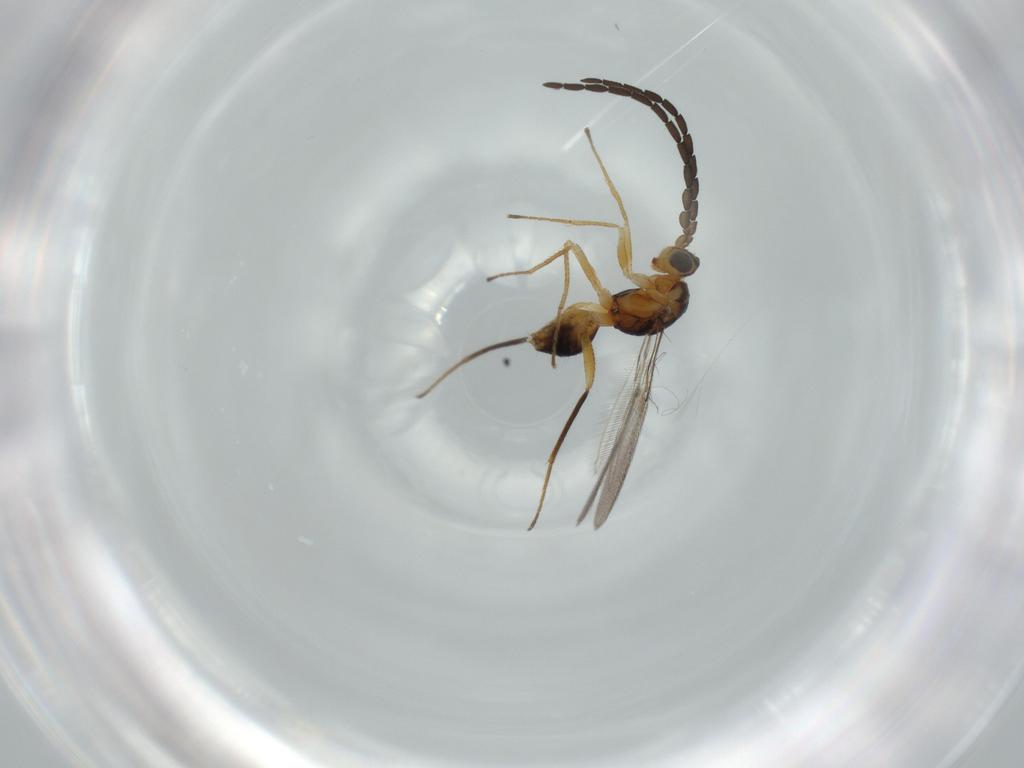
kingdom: Animalia
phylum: Arthropoda
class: Insecta
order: Hymenoptera
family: Mymaridae
